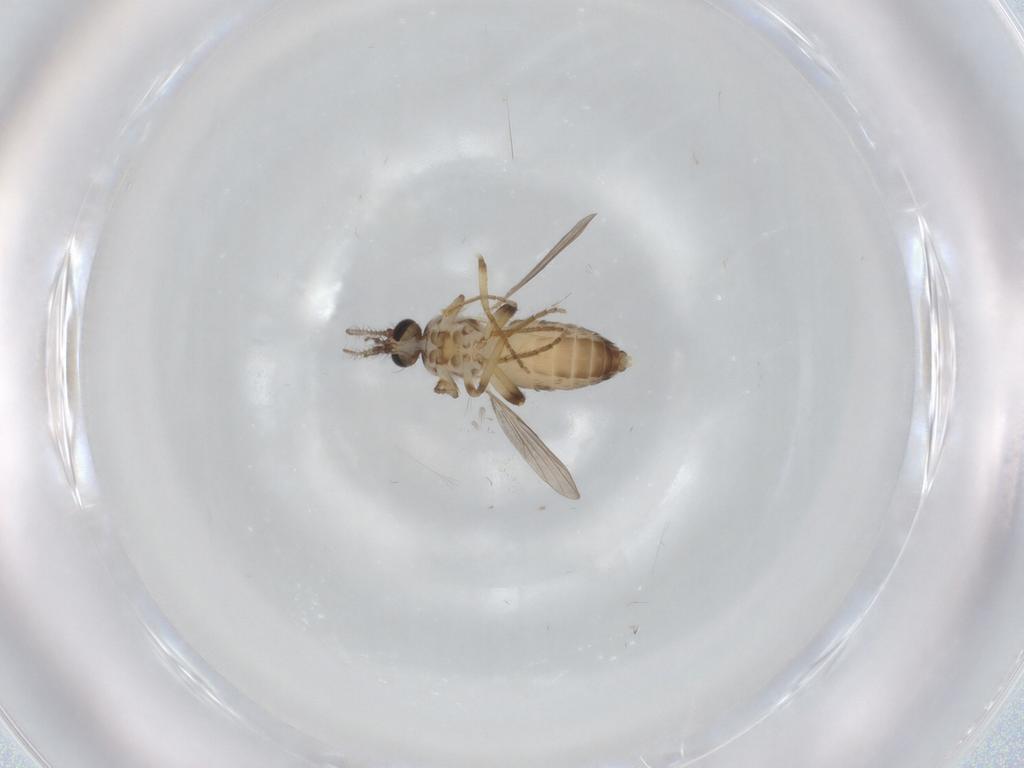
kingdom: Animalia
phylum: Arthropoda
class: Insecta
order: Diptera
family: Ceratopogonidae
